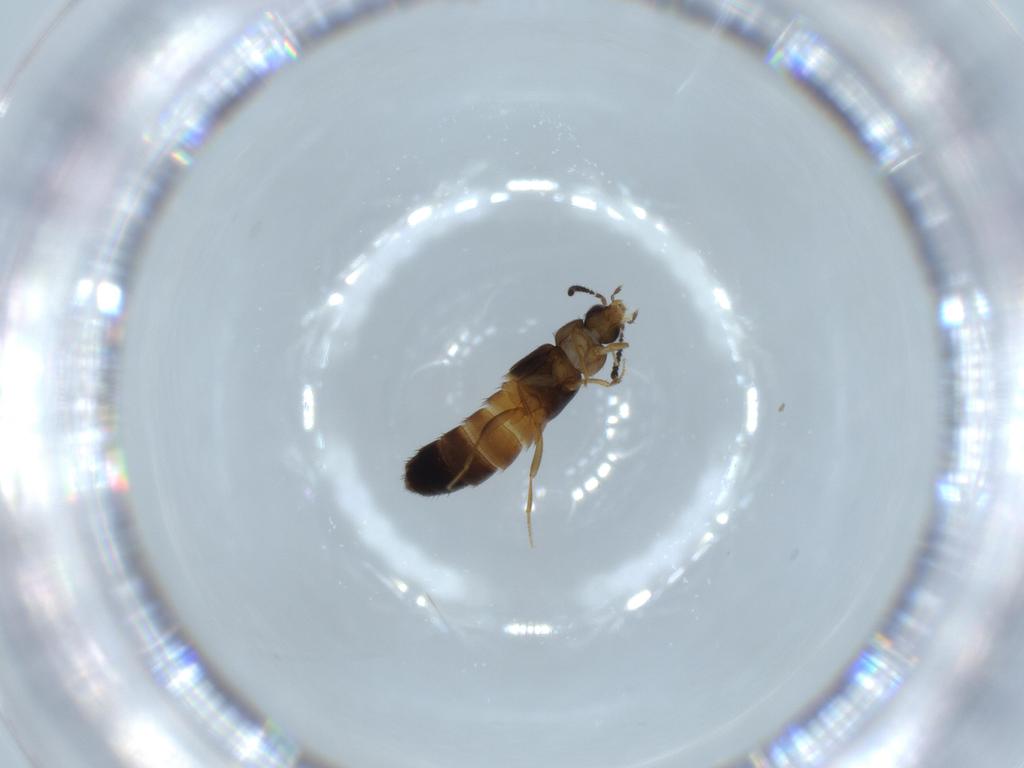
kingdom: Animalia
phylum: Arthropoda
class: Insecta
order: Coleoptera
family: Staphylinidae
